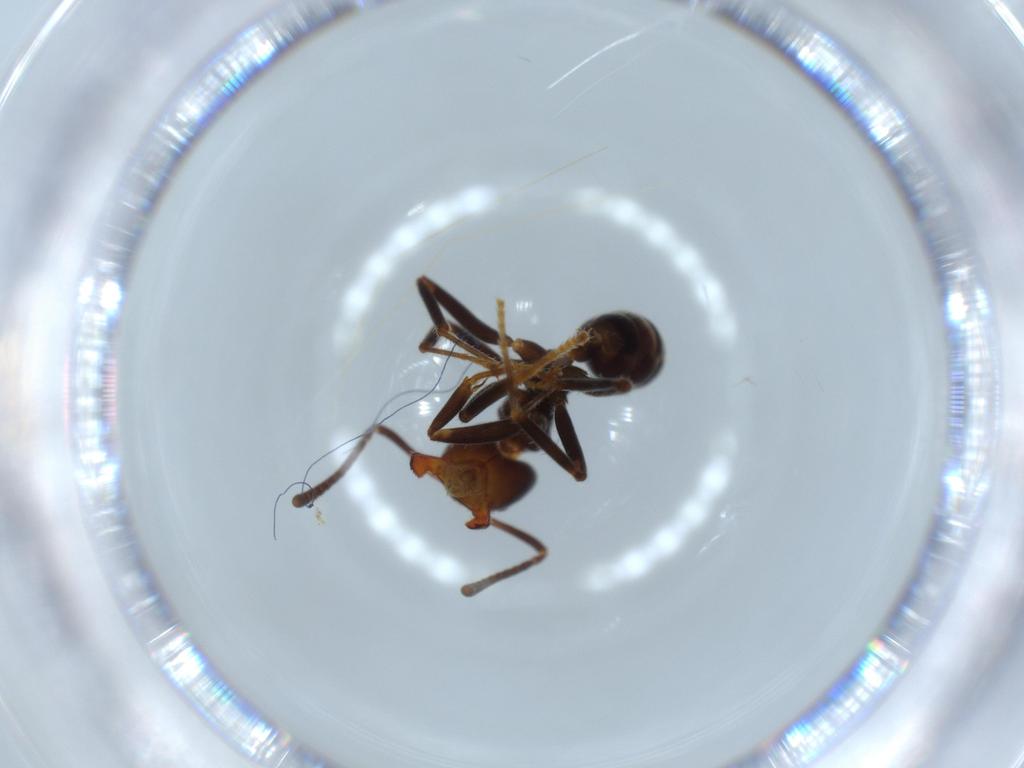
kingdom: Animalia
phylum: Arthropoda
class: Insecta
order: Hymenoptera
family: Formicidae
